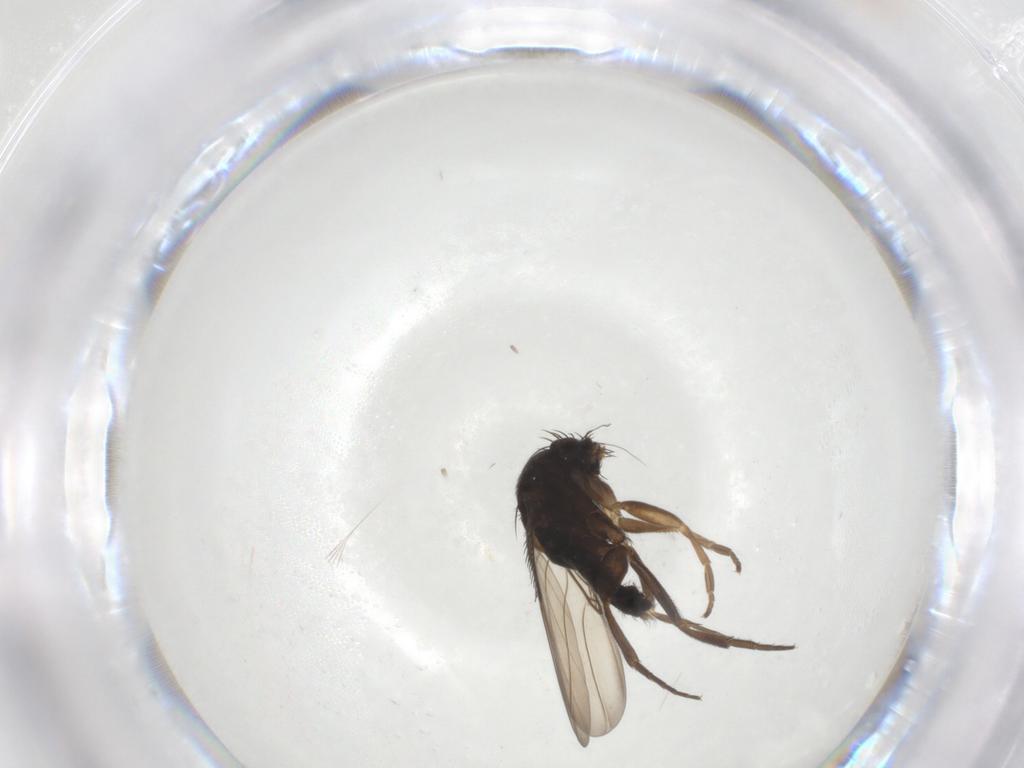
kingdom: Animalia
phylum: Arthropoda
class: Insecta
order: Diptera
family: Phoridae
